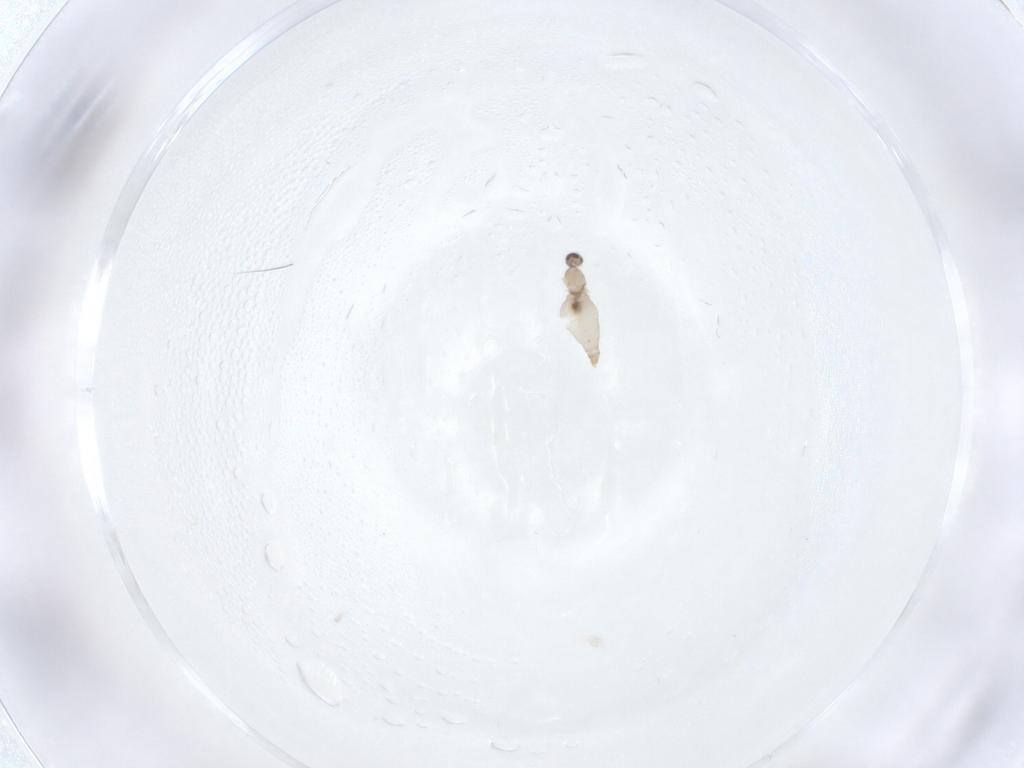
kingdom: Animalia
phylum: Arthropoda
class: Insecta
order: Diptera
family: Cecidomyiidae
